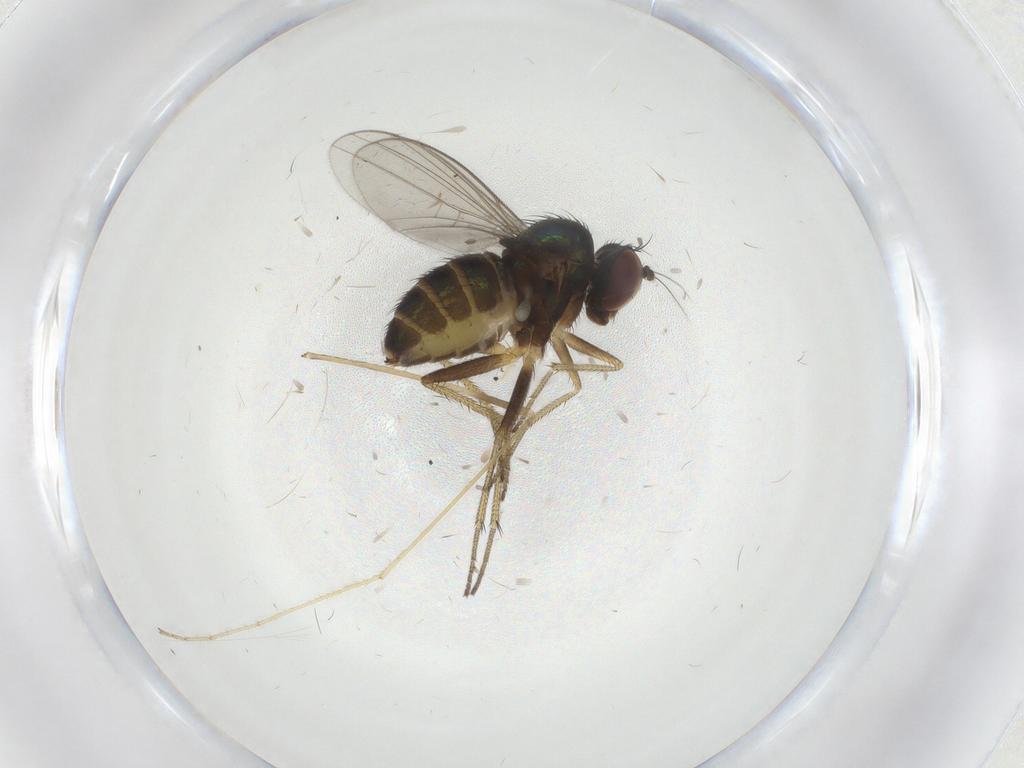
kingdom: Animalia
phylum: Arthropoda
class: Insecta
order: Diptera
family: Limoniidae
